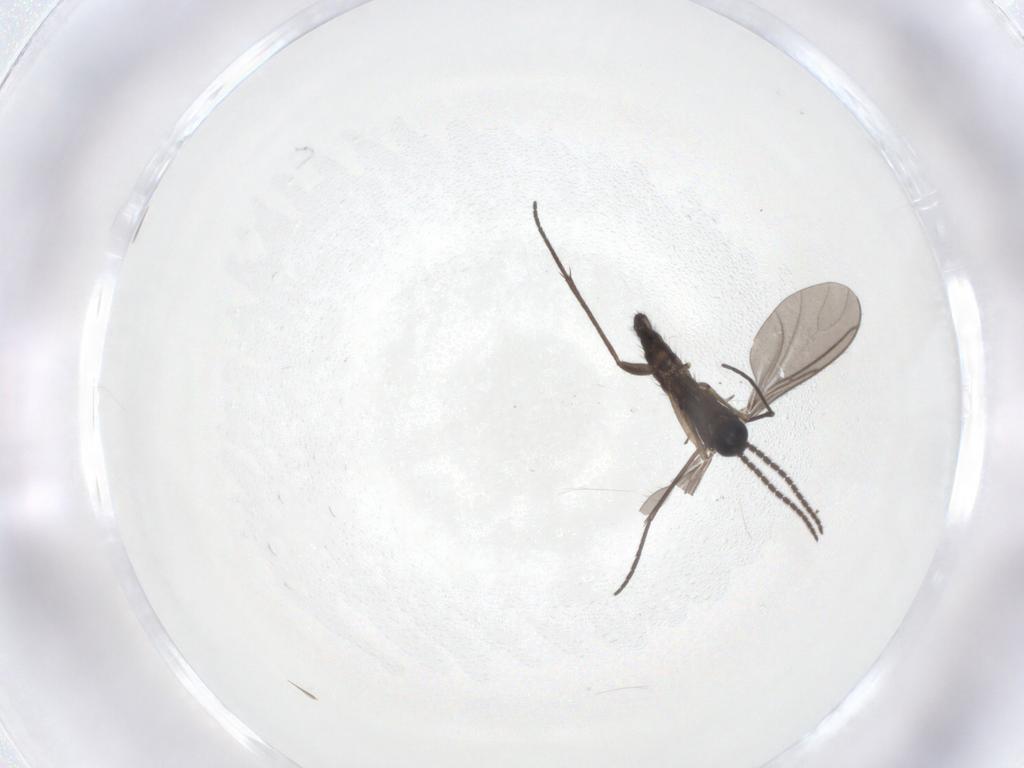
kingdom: Animalia
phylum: Arthropoda
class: Insecta
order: Diptera
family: Sciaridae
